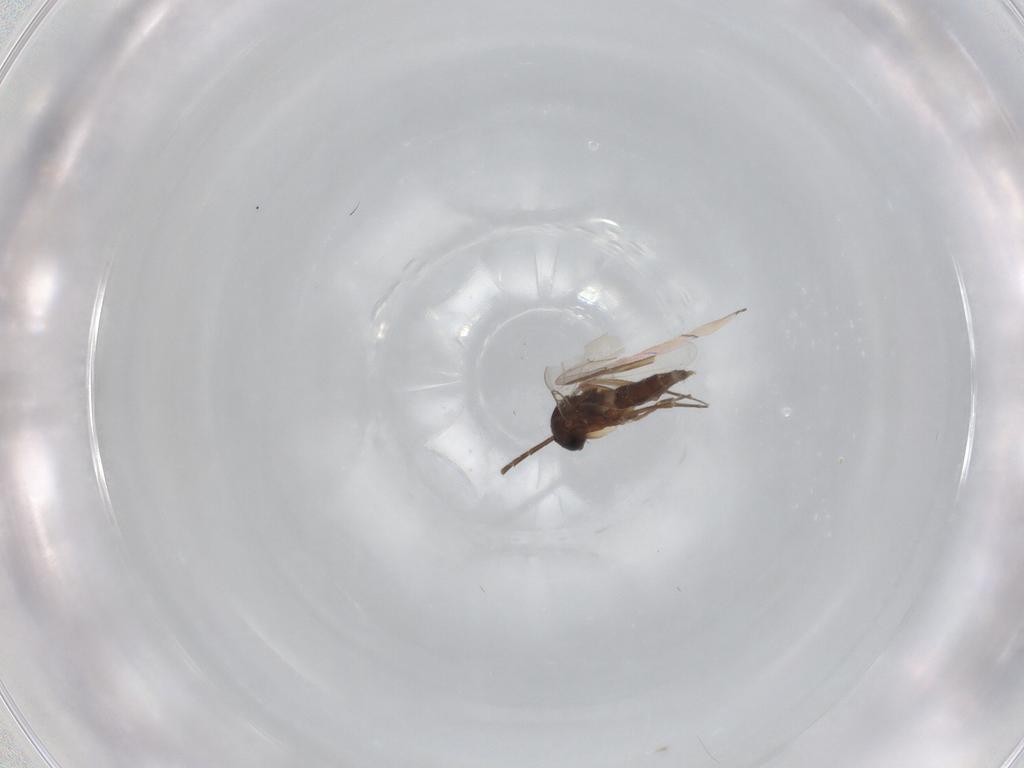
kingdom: Animalia
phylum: Arthropoda
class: Insecta
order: Diptera
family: Phoridae
